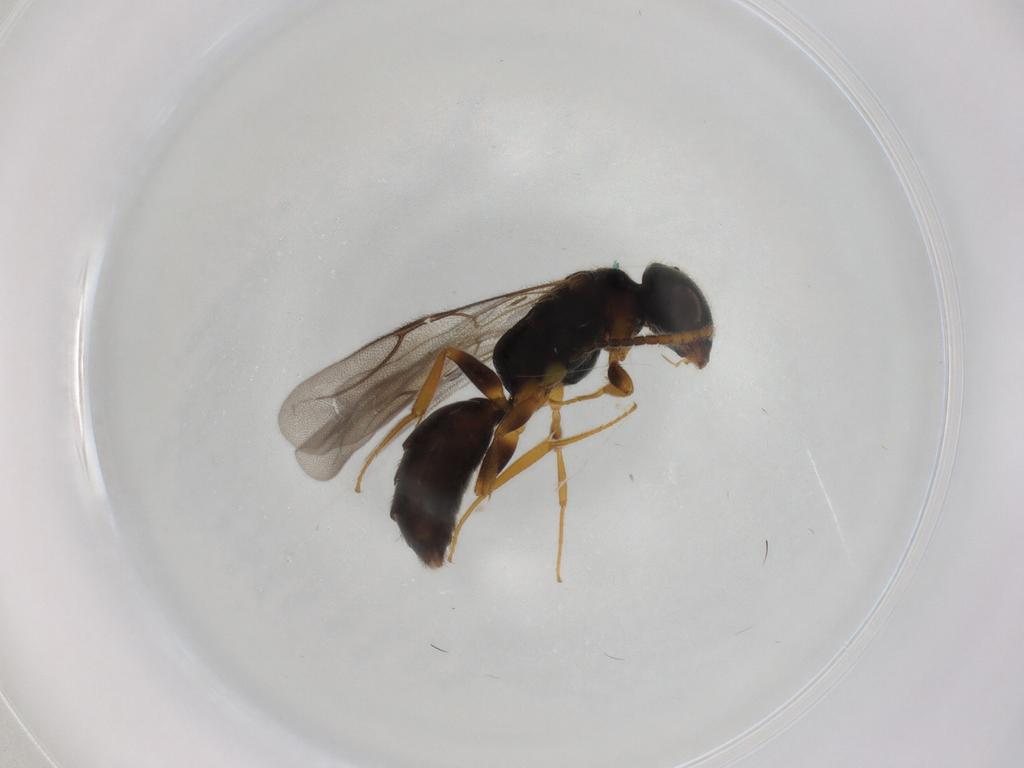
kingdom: Animalia
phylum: Arthropoda
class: Insecta
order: Hymenoptera
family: Bethylidae
